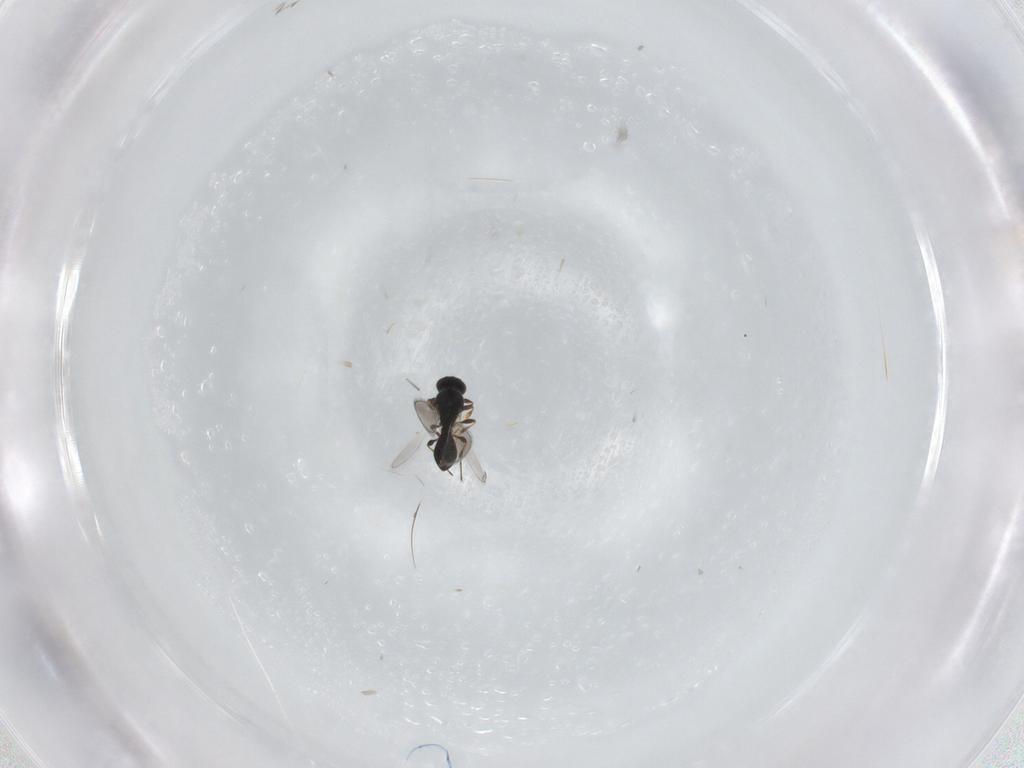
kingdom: Animalia
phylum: Arthropoda
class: Insecta
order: Hymenoptera
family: Platygastridae
